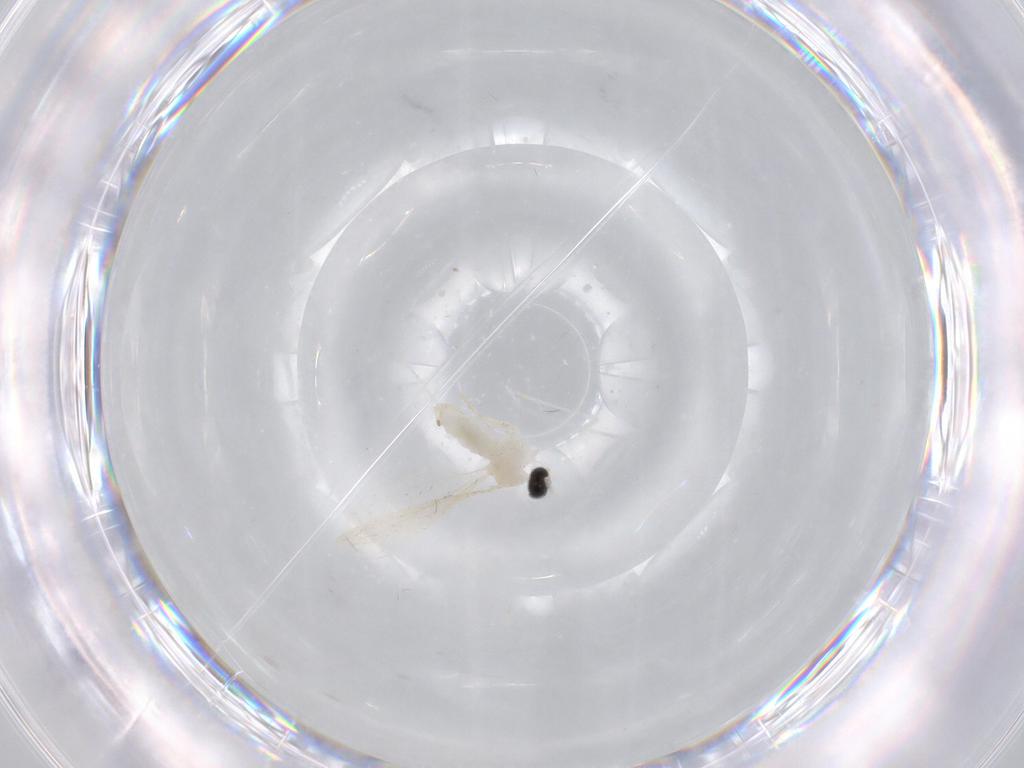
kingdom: Animalia
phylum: Arthropoda
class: Insecta
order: Diptera
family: Cecidomyiidae
